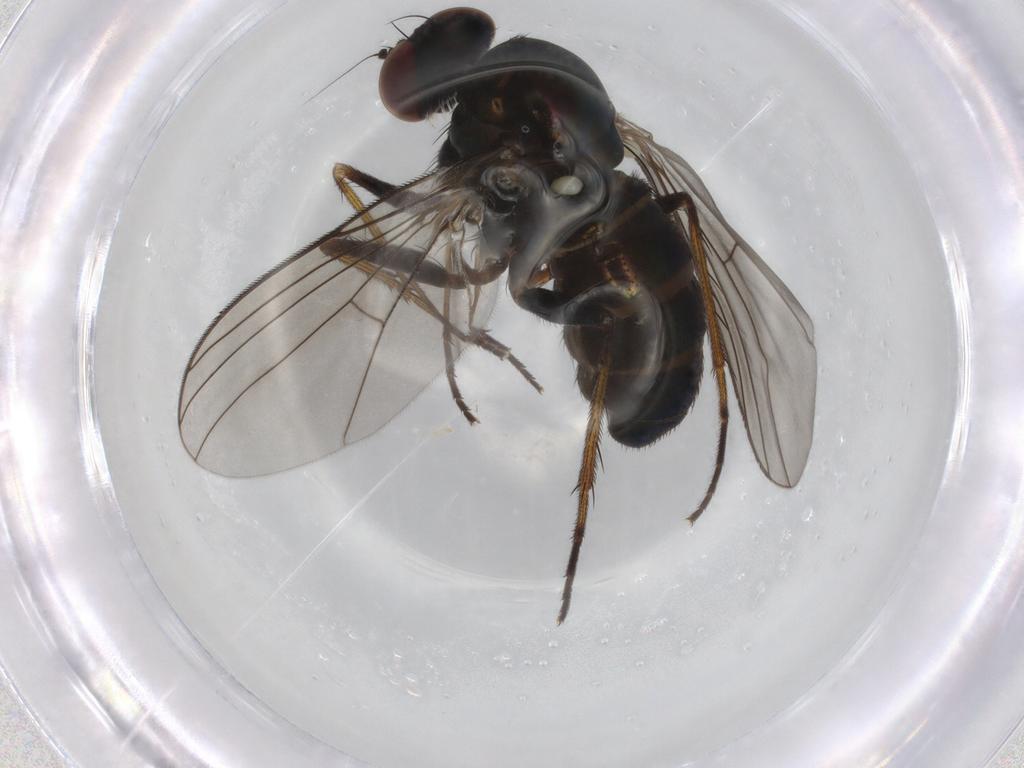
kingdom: Animalia
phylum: Arthropoda
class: Insecta
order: Diptera
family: Dolichopodidae
